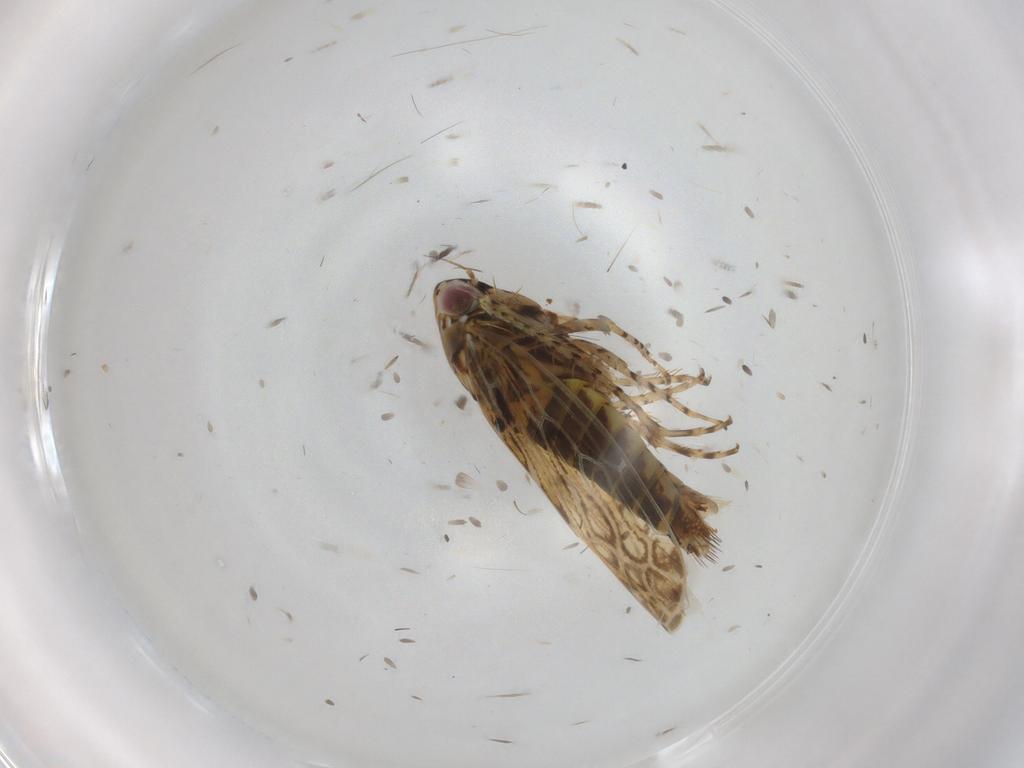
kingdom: Animalia
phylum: Arthropoda
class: Insecta
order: Hemiptera
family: Cicadellidae
